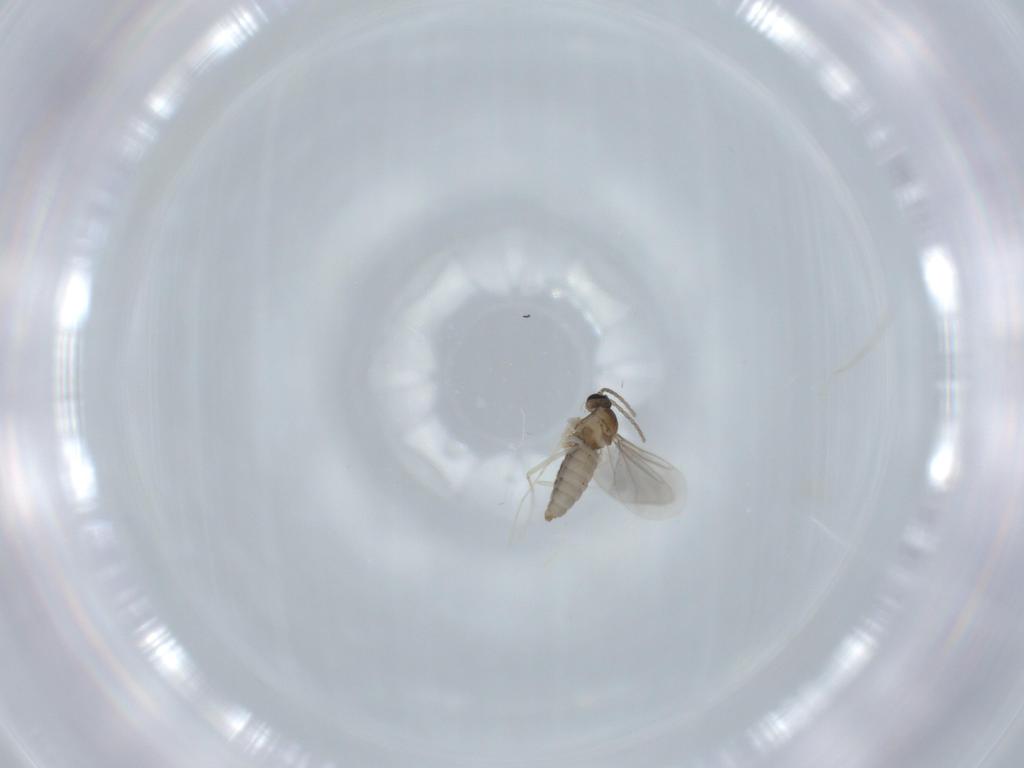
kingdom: Animalia
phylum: Arthropoda
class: Insecta
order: Diptera
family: Cecidomyiidae
